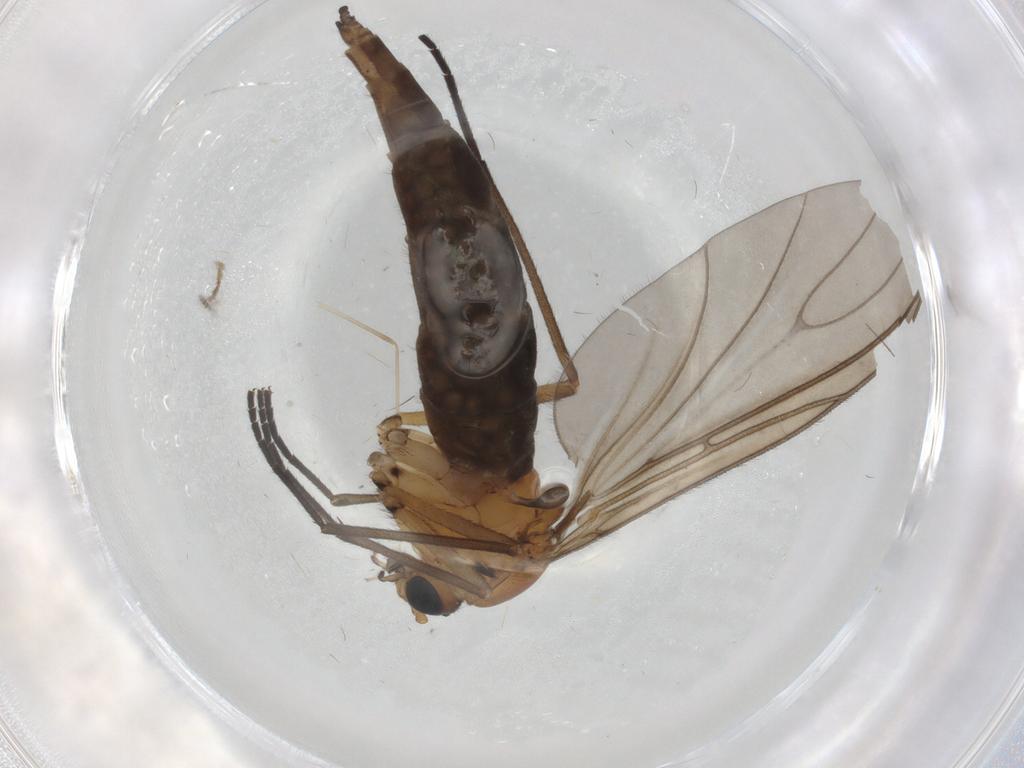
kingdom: Animalia
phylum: Arthropoda
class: Insecta
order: Diptera
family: Sciaridae
